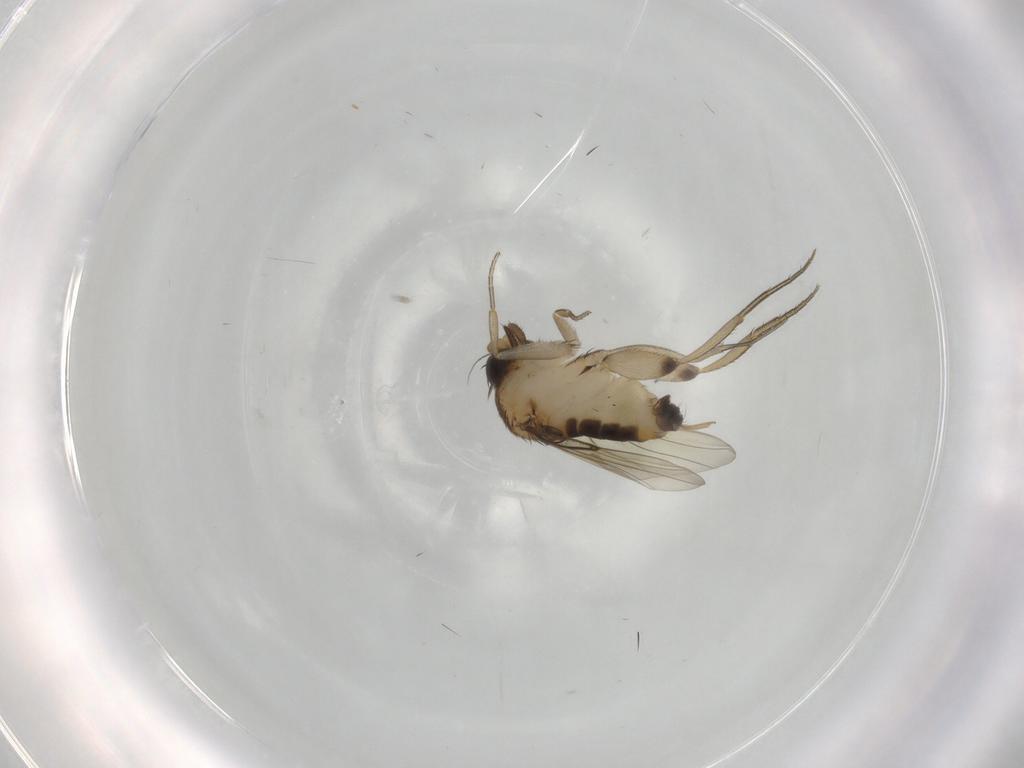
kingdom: Animalia
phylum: Arthropoda
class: Insecta
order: Diptera
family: Phoridae
